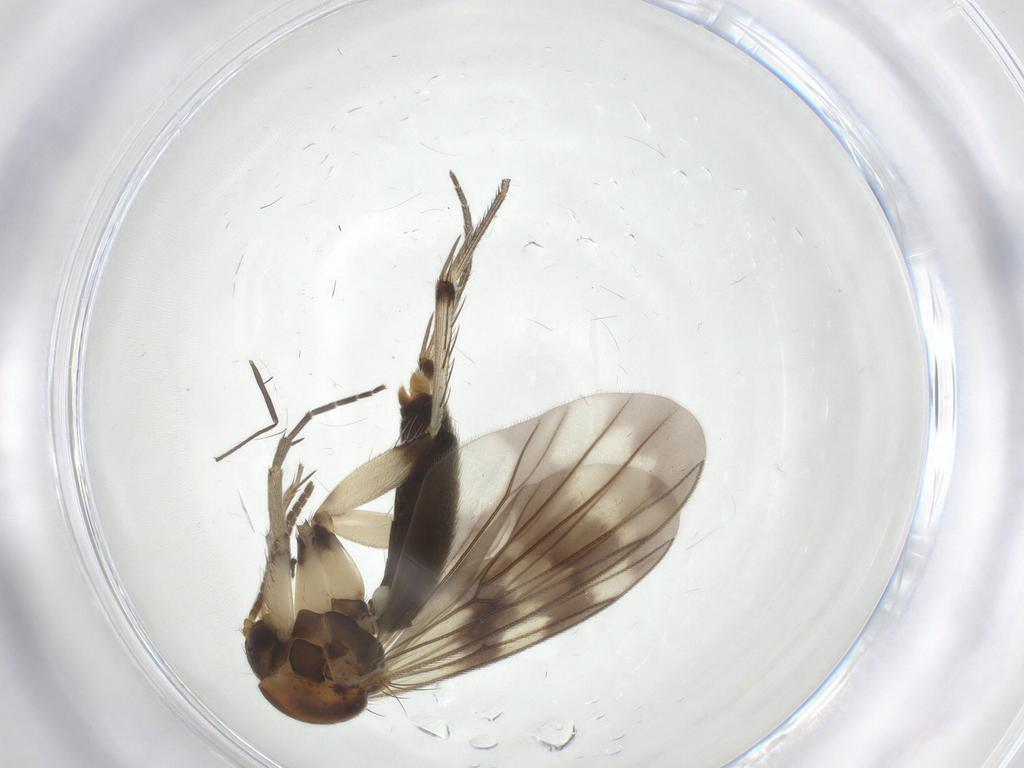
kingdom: Animalia
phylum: Arthropoda
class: Insecta
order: Diptera
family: Mycetophilidae
